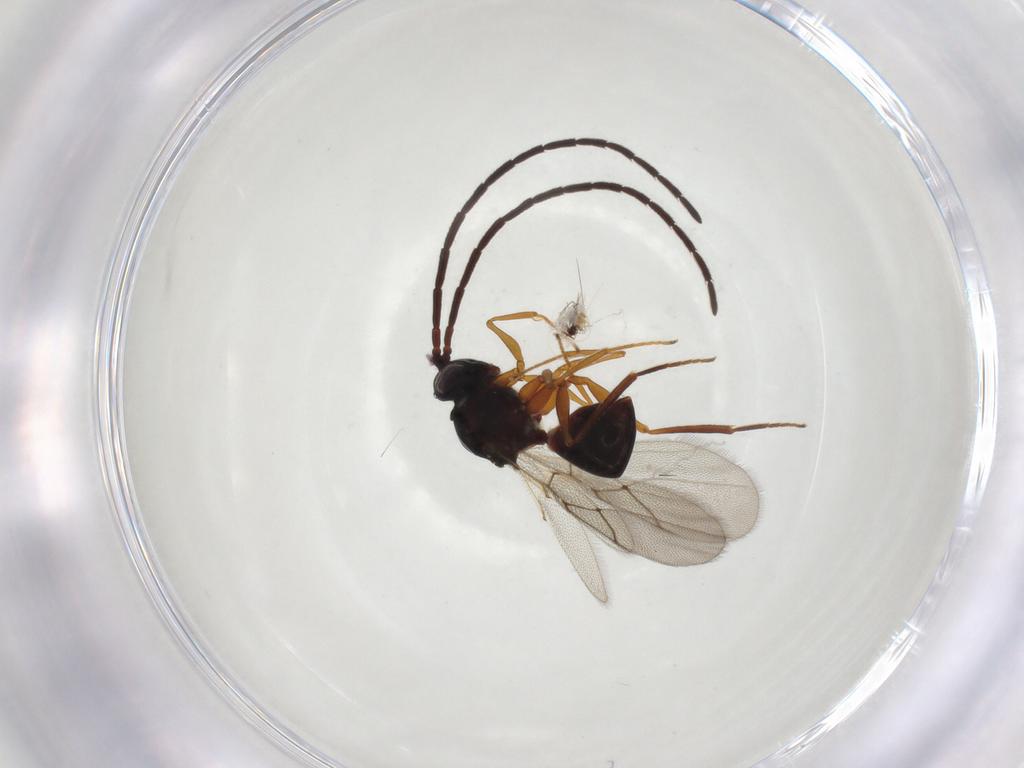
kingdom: Animalia
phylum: Arthropoda
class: Insecta
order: Hymenoptera
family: Figitidae
